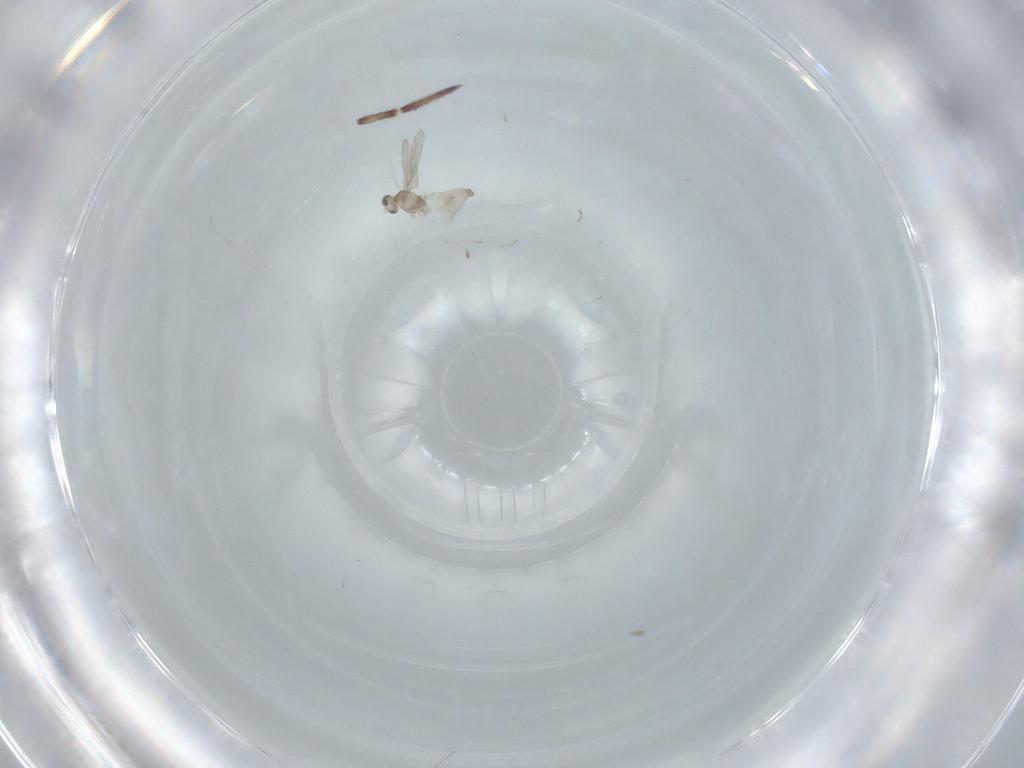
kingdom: Animalia
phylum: Arthropoda
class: Insecta
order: Diptera
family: Cecidomyiidae
